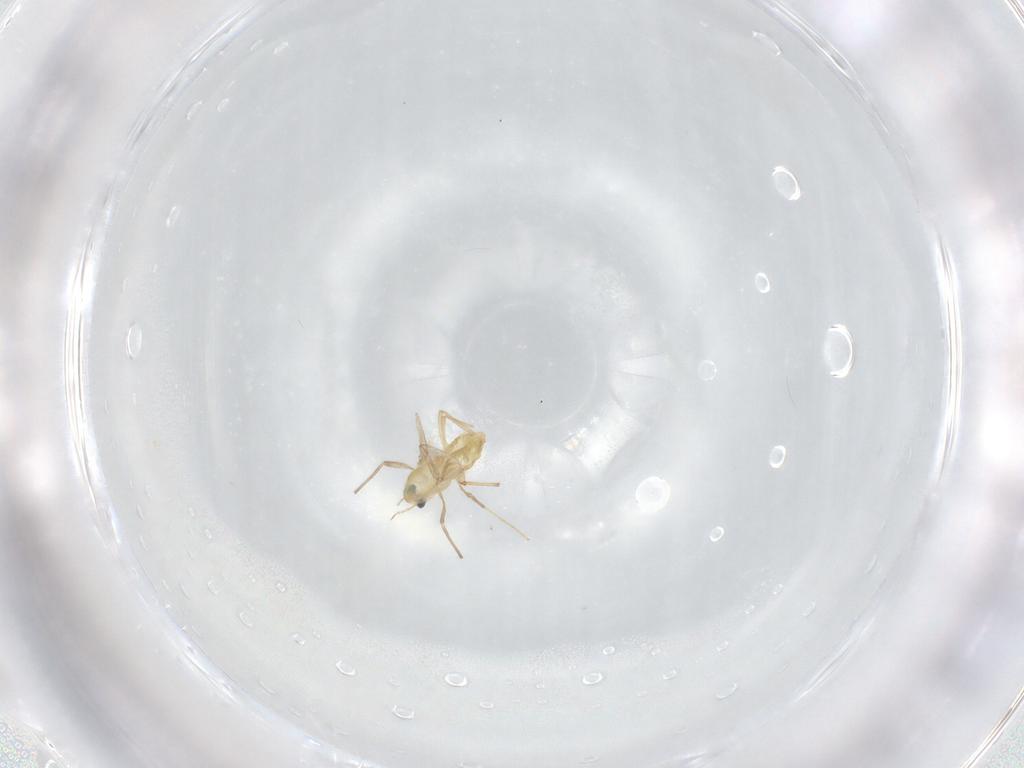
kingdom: Animalia
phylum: Arthropoda
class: Insecta
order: Diptera
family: Chironomidae
